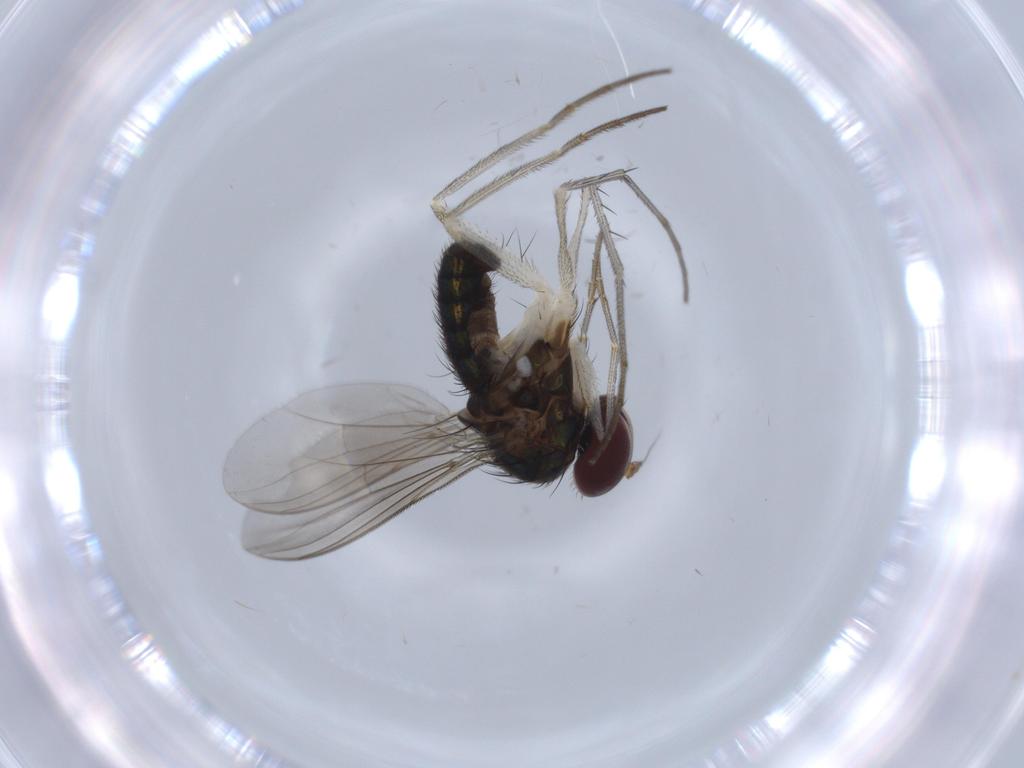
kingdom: Animalia
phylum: Arthropoda
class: Insecta
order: Diptera
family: Dolichopodidae
